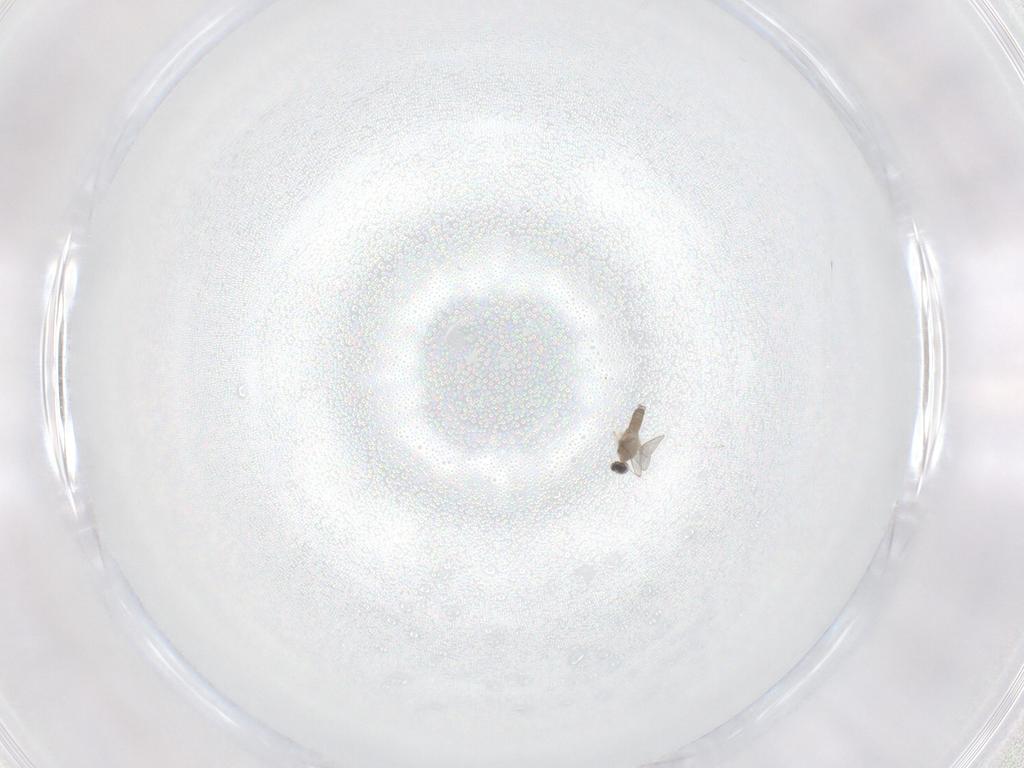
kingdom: Animalia
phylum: Arthropoda
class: Insecta
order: Diptera
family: Cecidomyiidae
